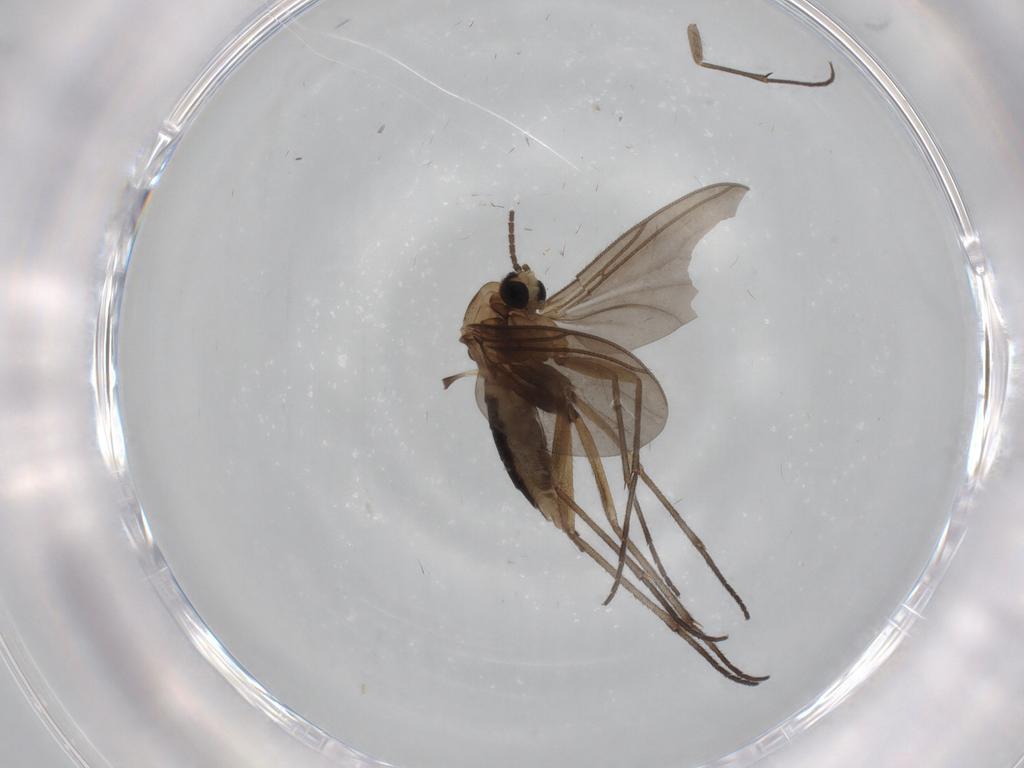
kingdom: Animalia
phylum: Arthropoda
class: Insecta
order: Diptera
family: Sciaridae
